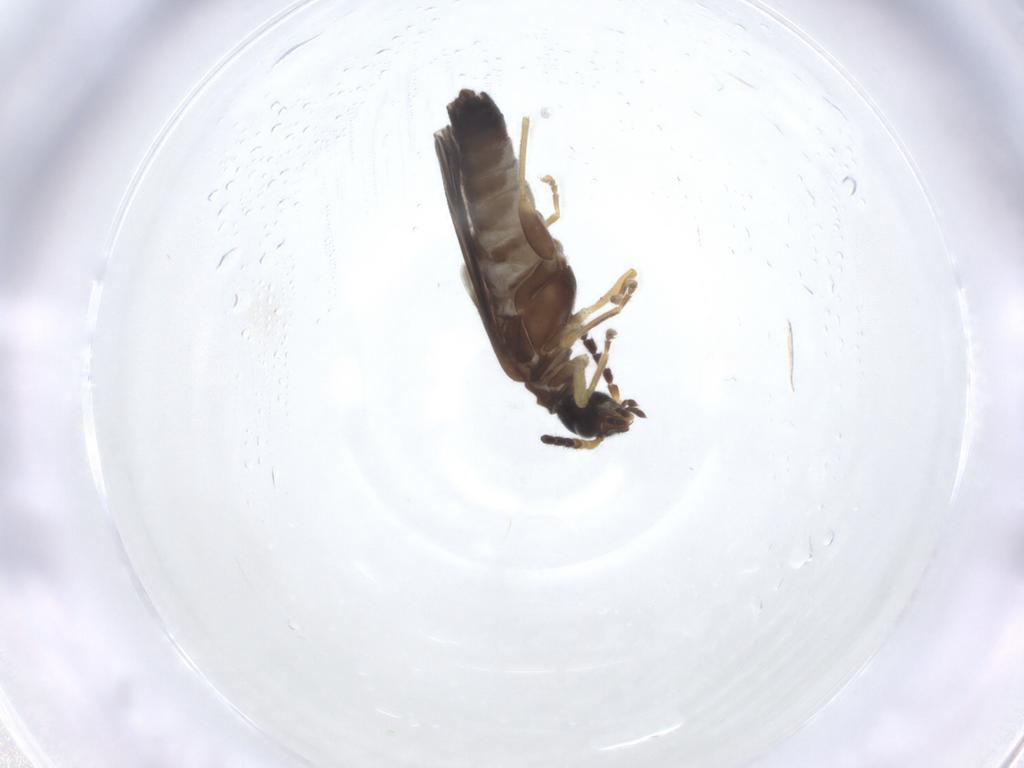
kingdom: Animalia
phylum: Arthropoda
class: Insecta
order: Coleoptera
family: Cantharidae
